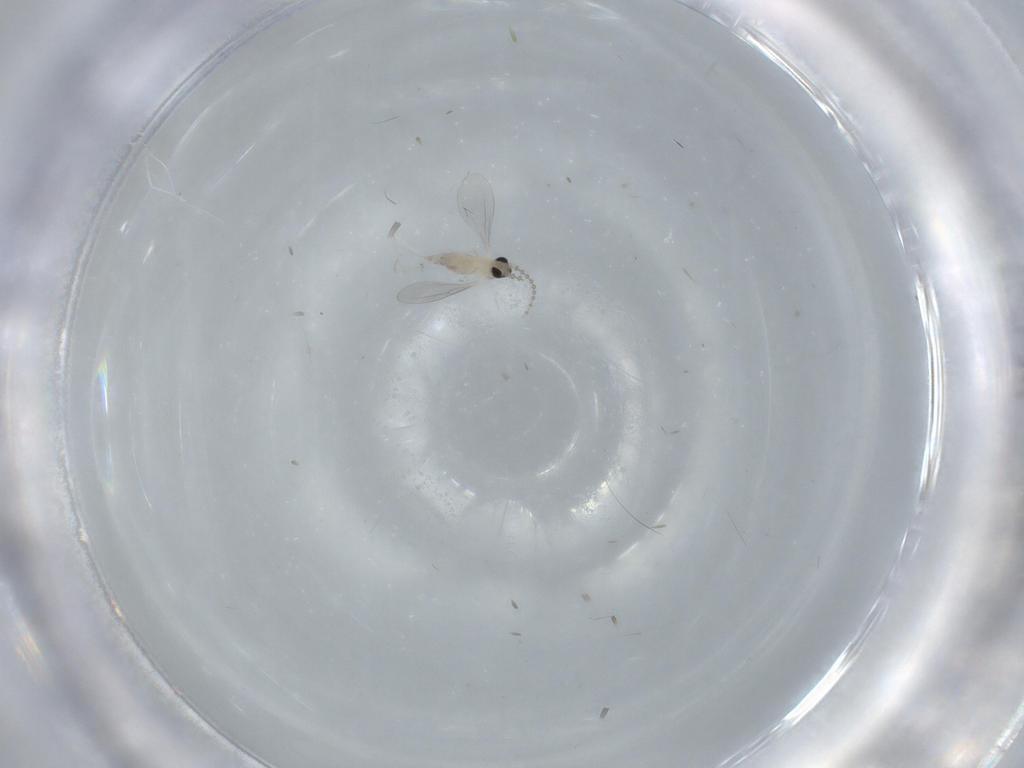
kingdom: Animalia
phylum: Arthropoda
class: Insecta
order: Diptera
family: Cecidomyiidae
